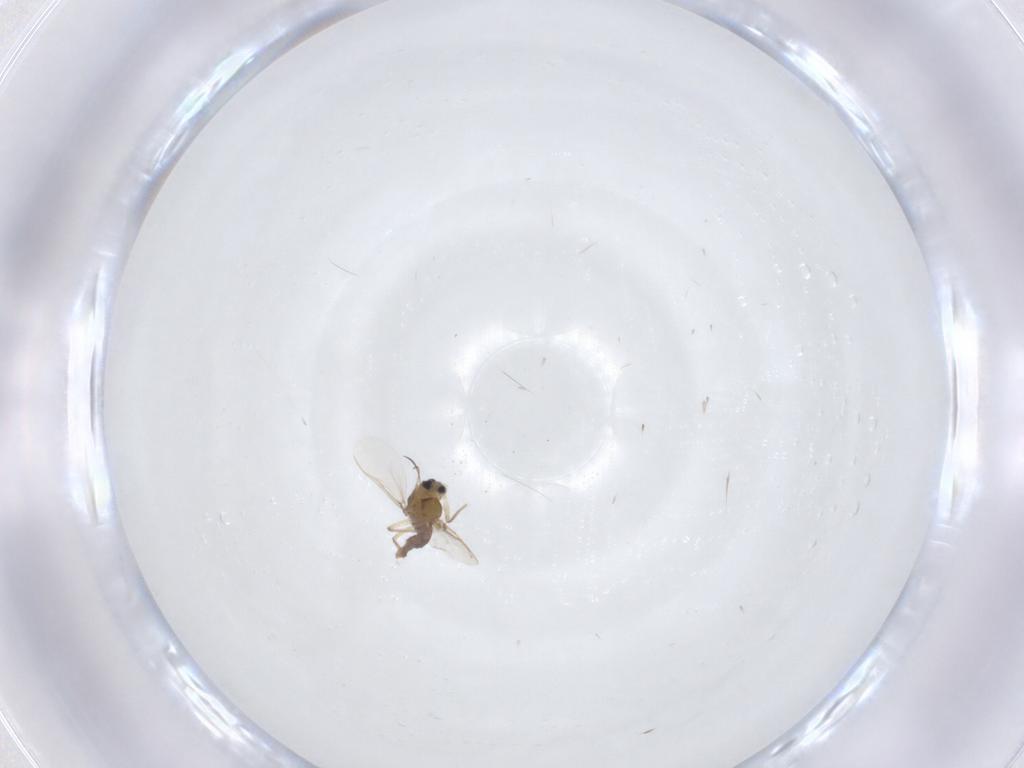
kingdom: Animalia
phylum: Arthropoda
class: Insecta
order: Diptera
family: Chironomidae
